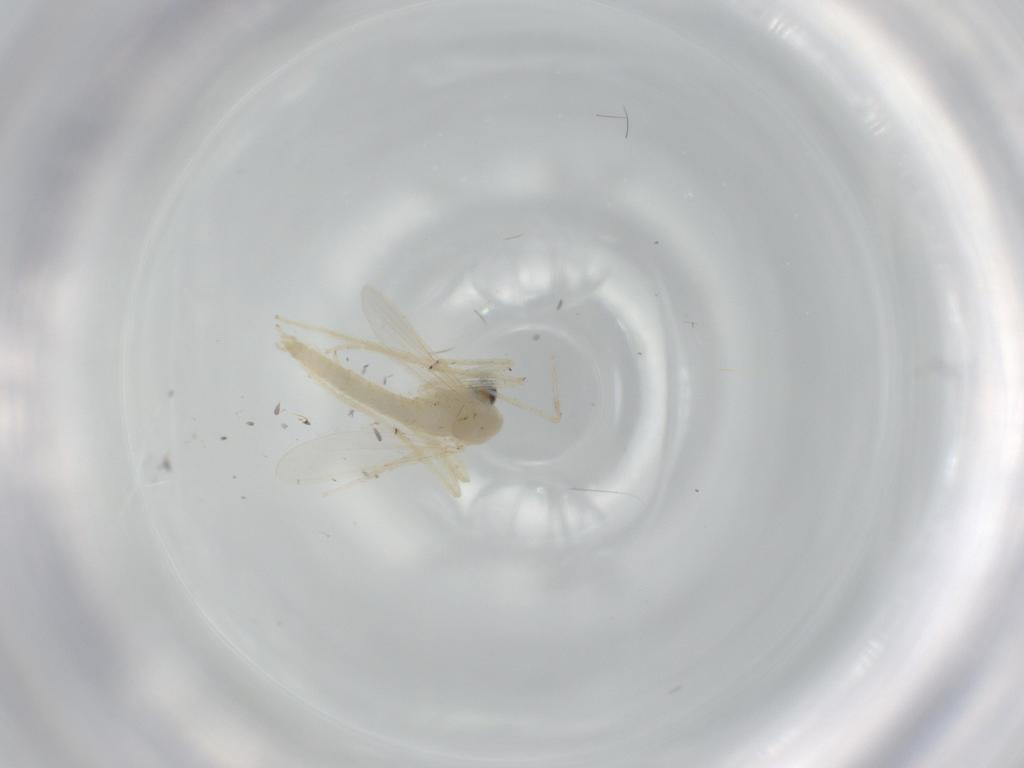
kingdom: Animalia
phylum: Arthropoda
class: Insecta
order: Diptera
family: Chironomidae
